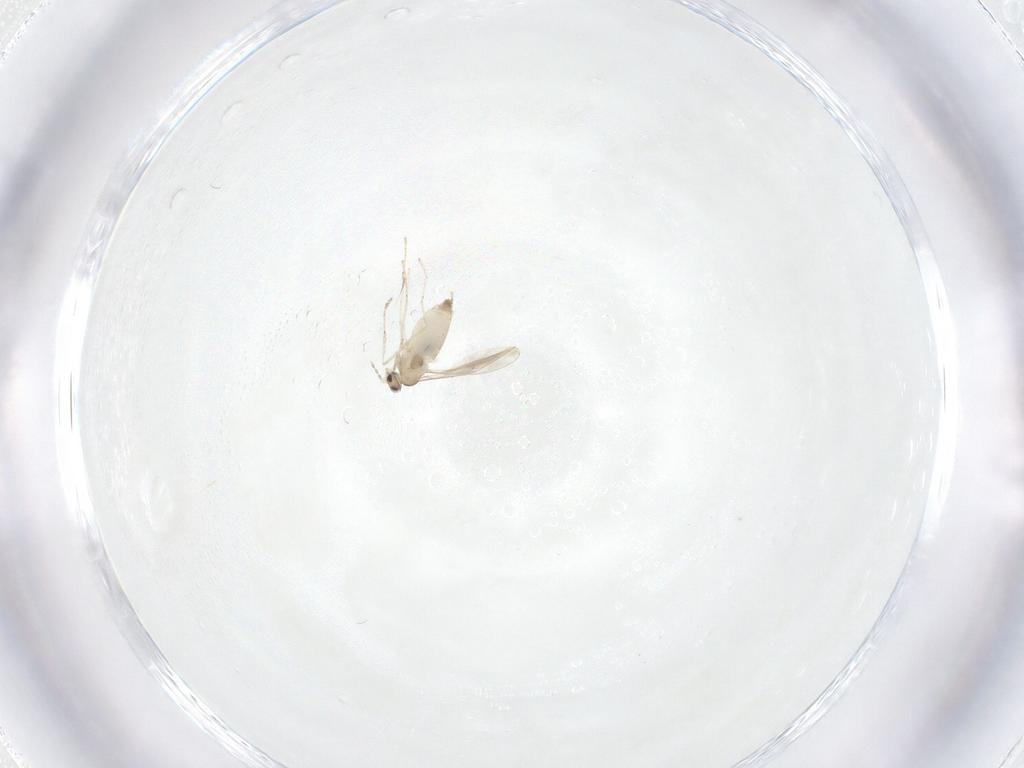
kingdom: Animalia
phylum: Arthropoda
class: Insecta
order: Diptera
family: Cecidomyiidae
